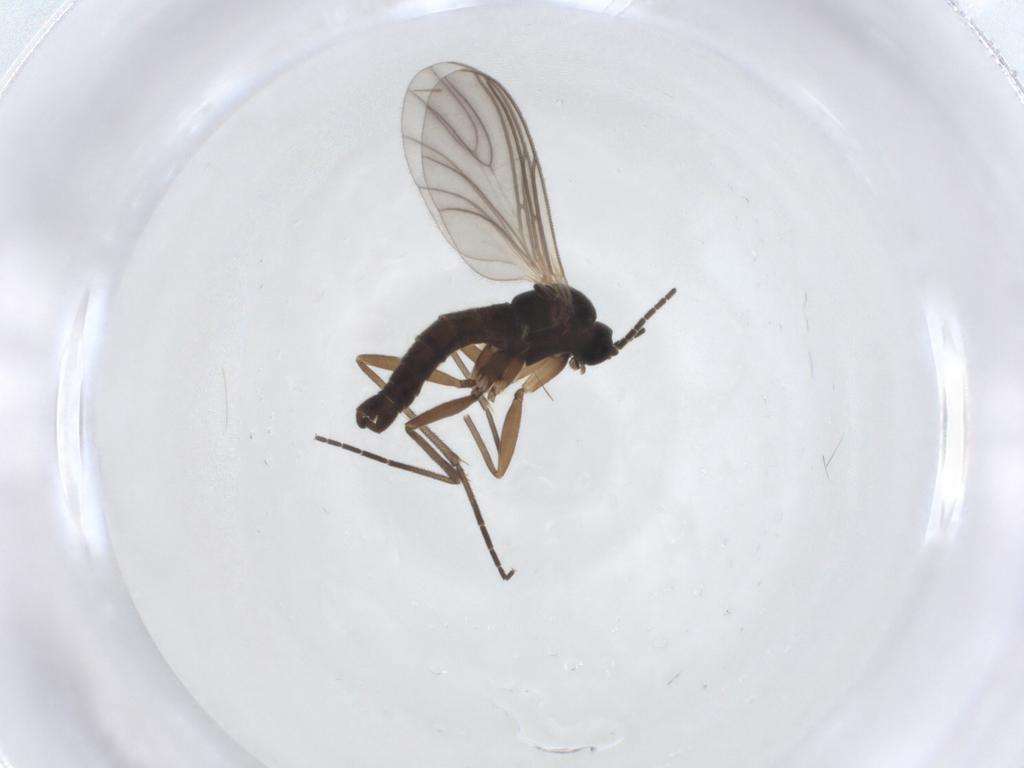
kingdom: Animalia
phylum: Arthropoda
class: Insecta
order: Diptera
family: Sciaridae
